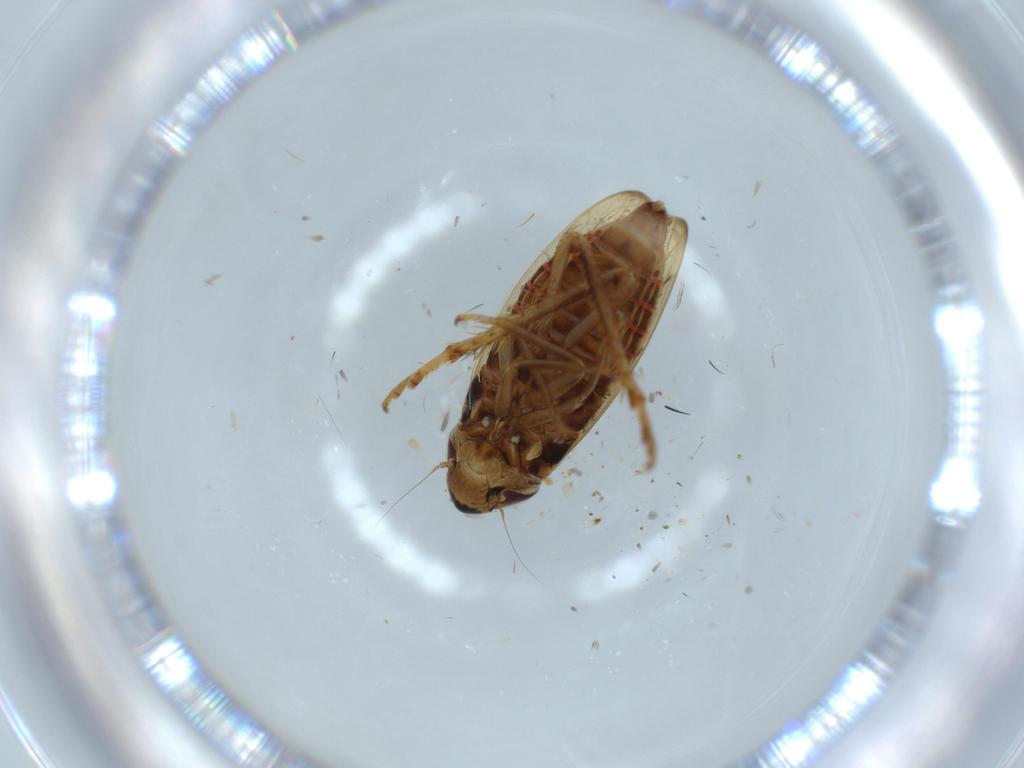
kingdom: Animalia
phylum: Arthropoda
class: Insecta
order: Hemiptera
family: Cicadellidae
